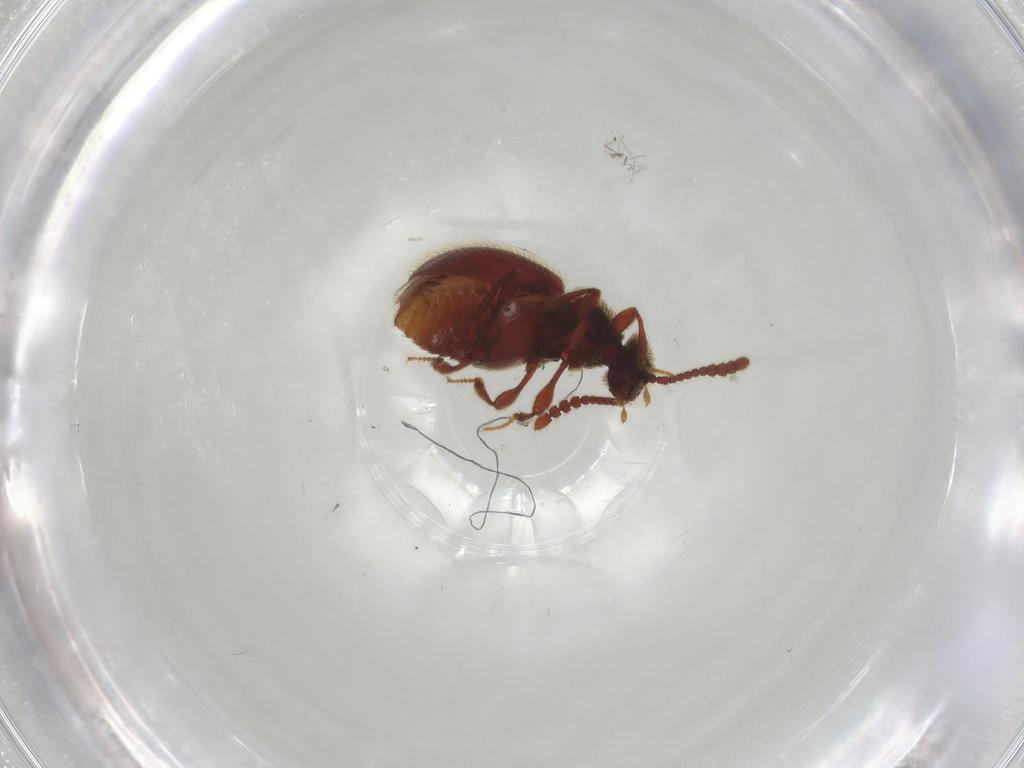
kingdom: Animalia
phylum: Arthropoda
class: Insecta
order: Coleoptera
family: Staphylinidae
